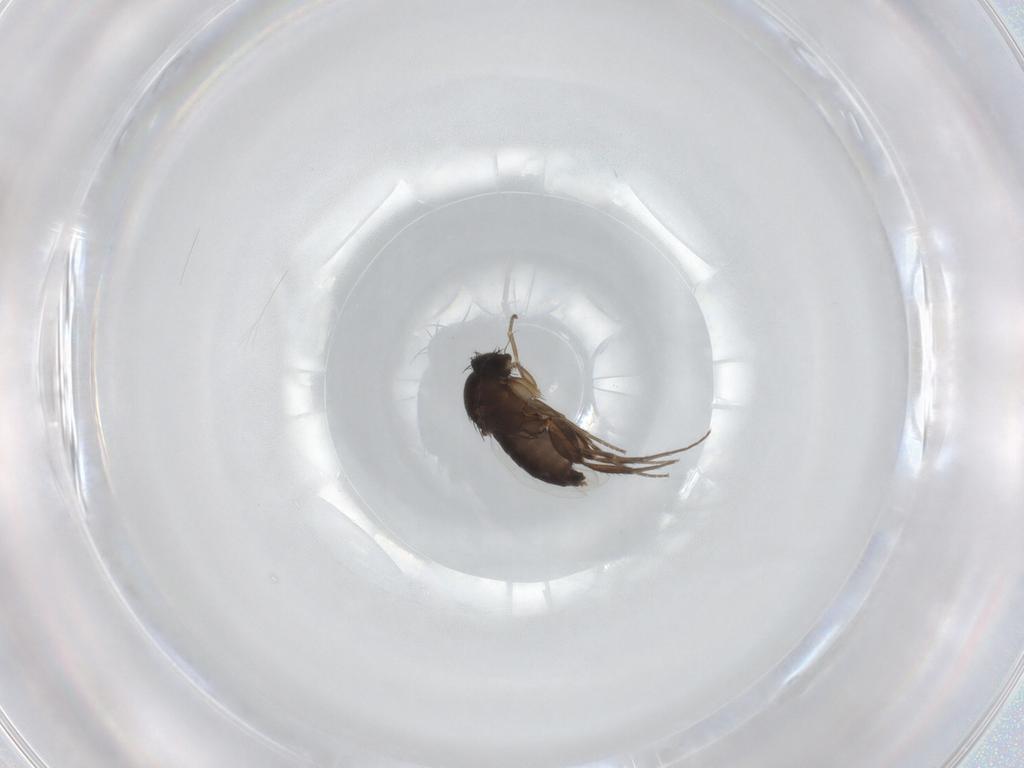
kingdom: Animalia
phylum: Arthropoda
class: Insecta
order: Diptera
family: Phoridae
